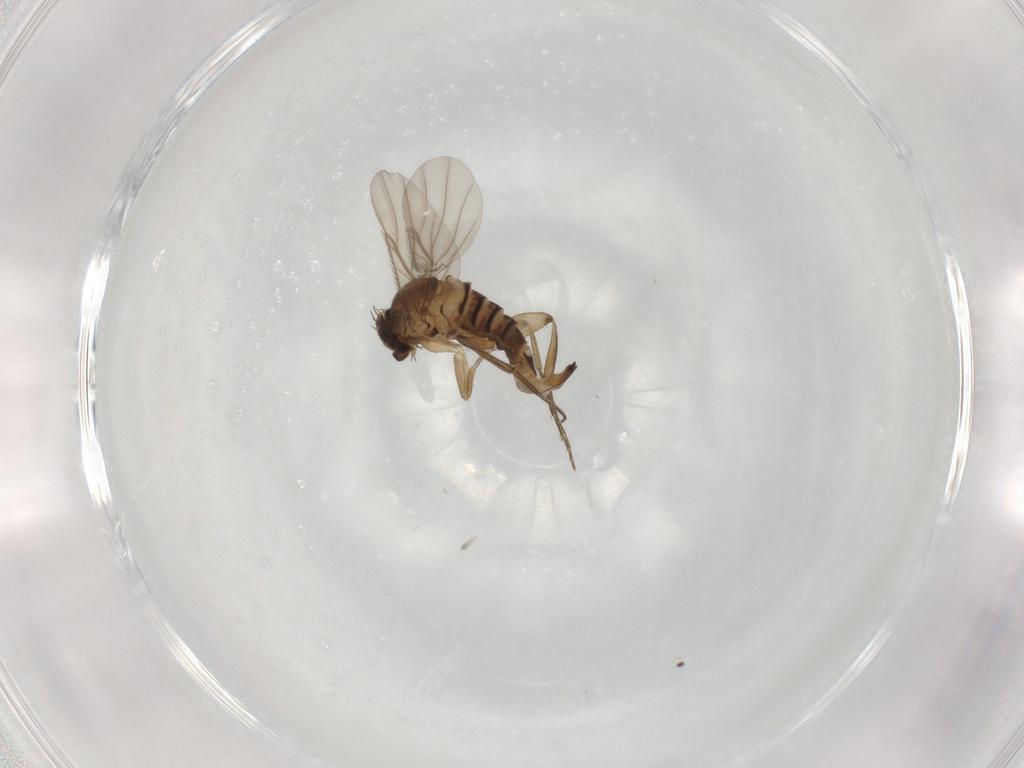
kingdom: Animalia
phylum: Arthropoda
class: Insecta
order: Diptera
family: Phoridae
